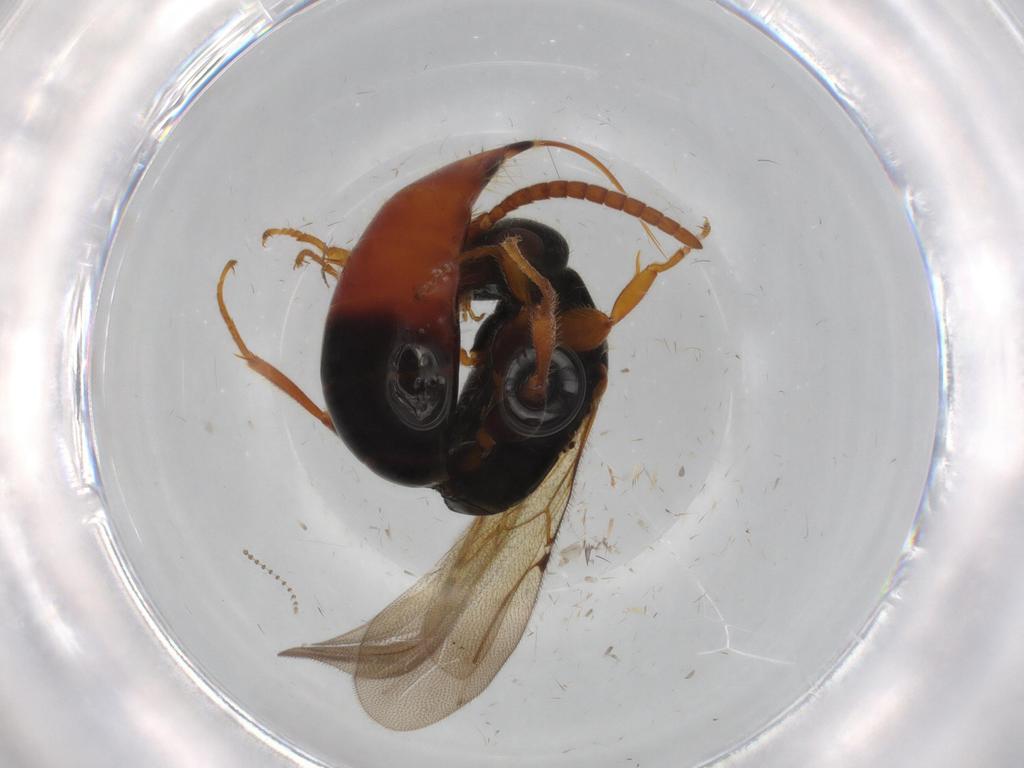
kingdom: Animalia
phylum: Arthropoda
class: Insecta
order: Hymenoptera
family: Bethylidae
